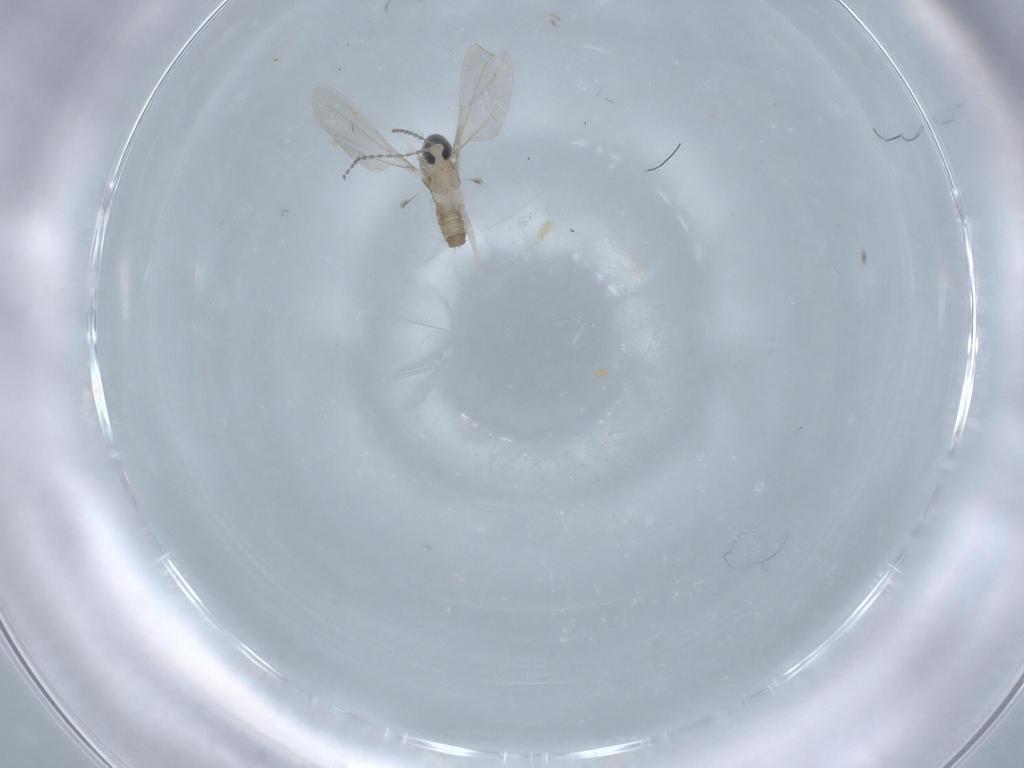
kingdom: Animalia
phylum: Arthropoda
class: Insecta
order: Diptera
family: Cecidomyiidae
